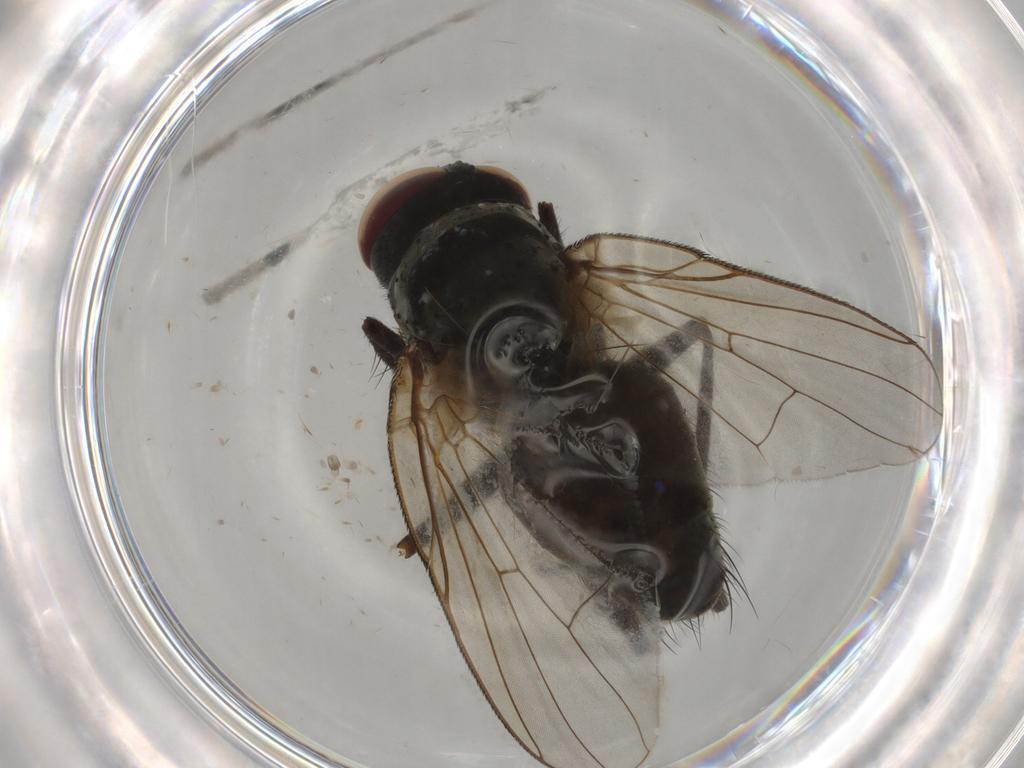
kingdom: Animalia
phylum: Arthropoda
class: Insecta
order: Diptera
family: Muscidae
